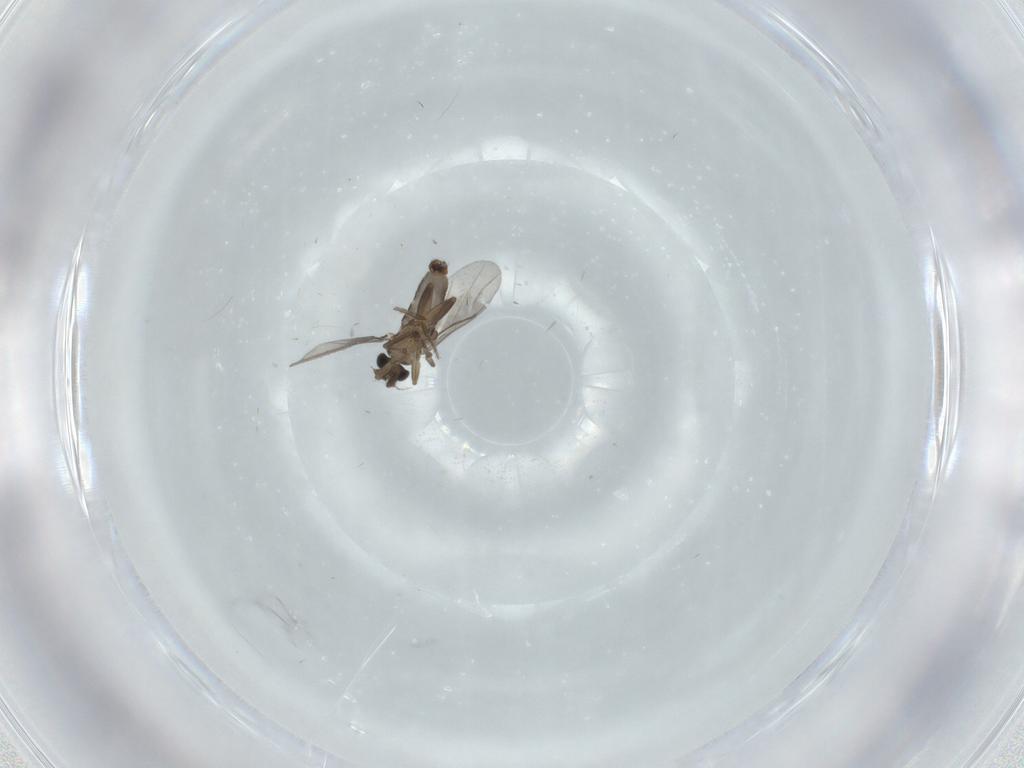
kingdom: Animalia
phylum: Arthropoda
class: Insecta
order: Diptera
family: Chironomidae
